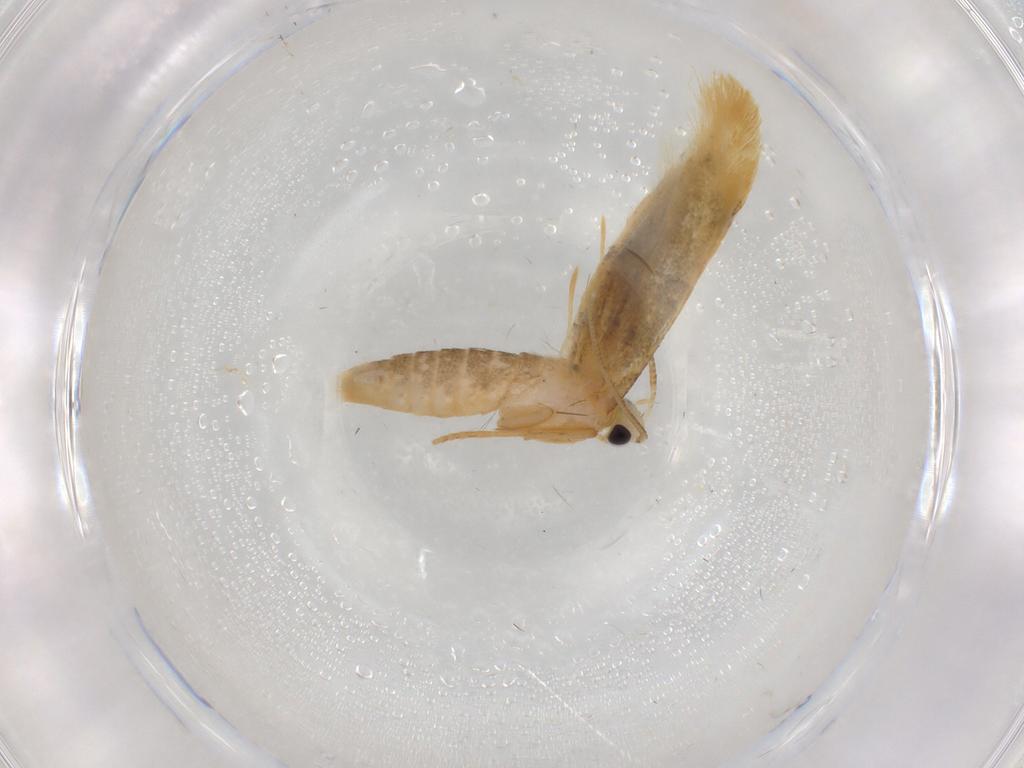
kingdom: Animalia
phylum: Arthropoda
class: Insecta
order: Lepidoptera
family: Nepticulidae
